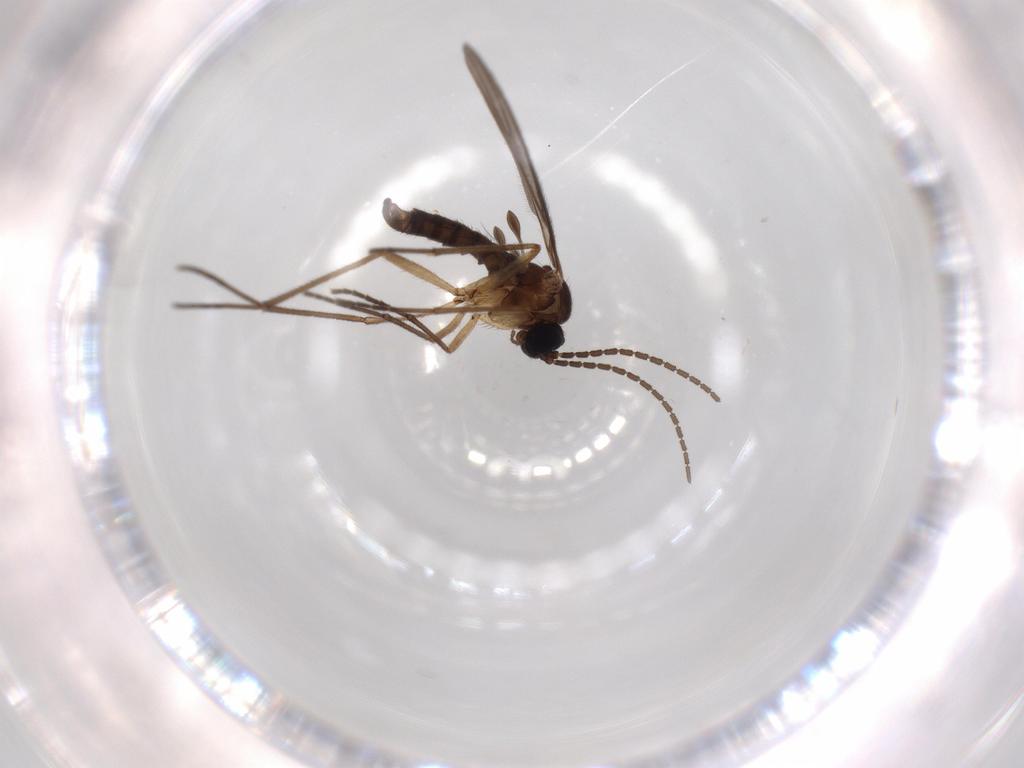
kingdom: Animalia
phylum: Arthropoda
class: Insecta
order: Diptera
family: Sciaridae
